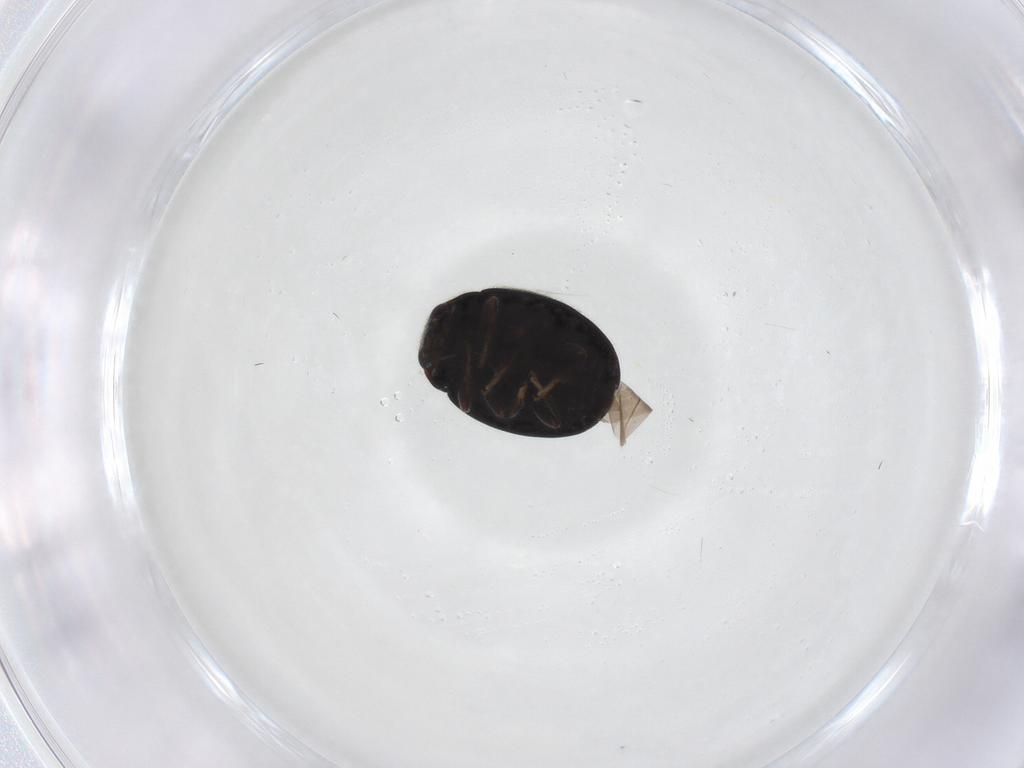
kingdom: Animalia
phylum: Arthropoda
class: Insecta
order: Coleoptera
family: Coccinellidae
